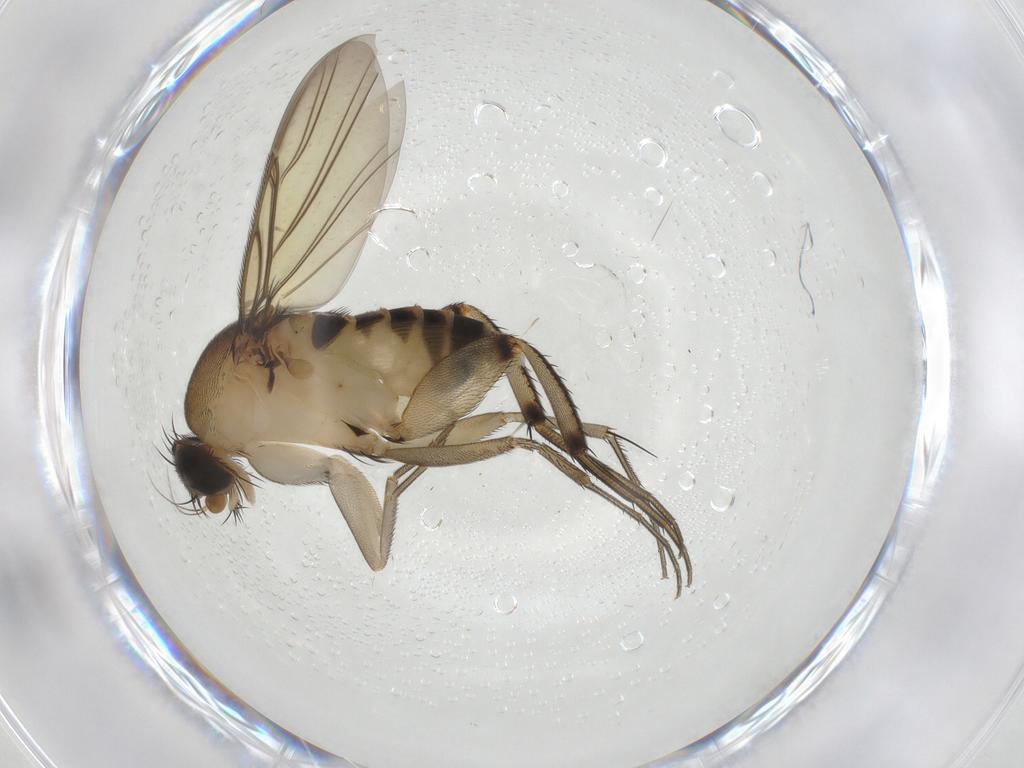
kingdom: Animalia
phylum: Arthropoda
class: Insecta
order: Diptera
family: Phoridae
